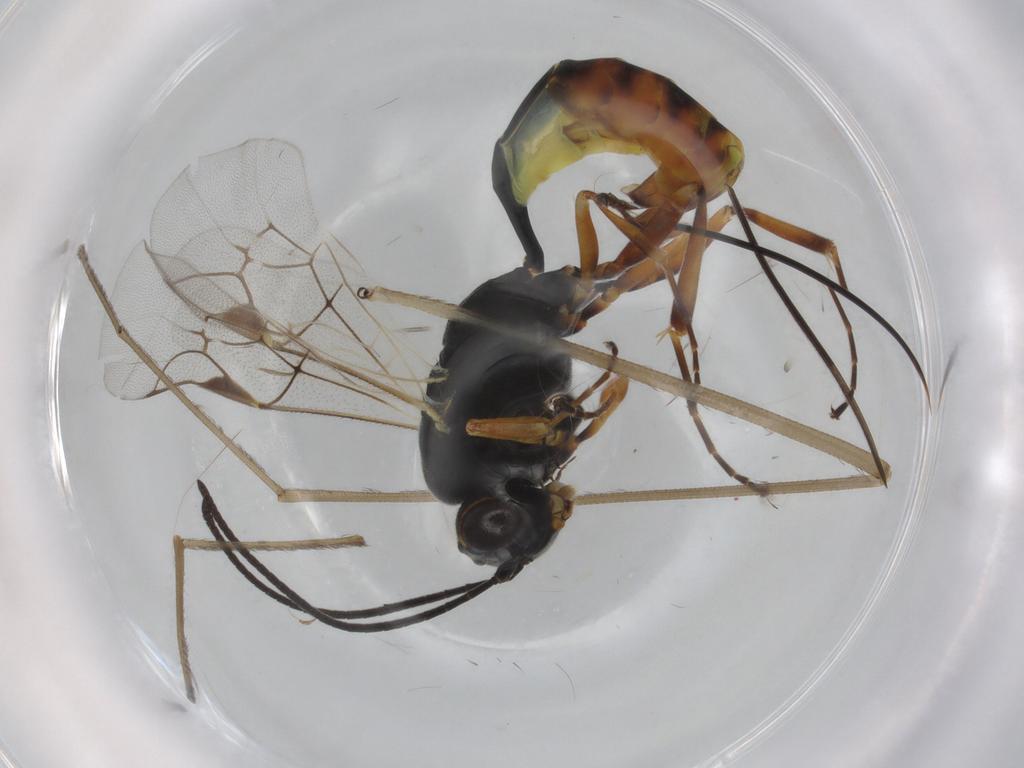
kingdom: Animalia
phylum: Arthropoda
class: Insecta
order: Hymenoptera
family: Ichneumonidae
